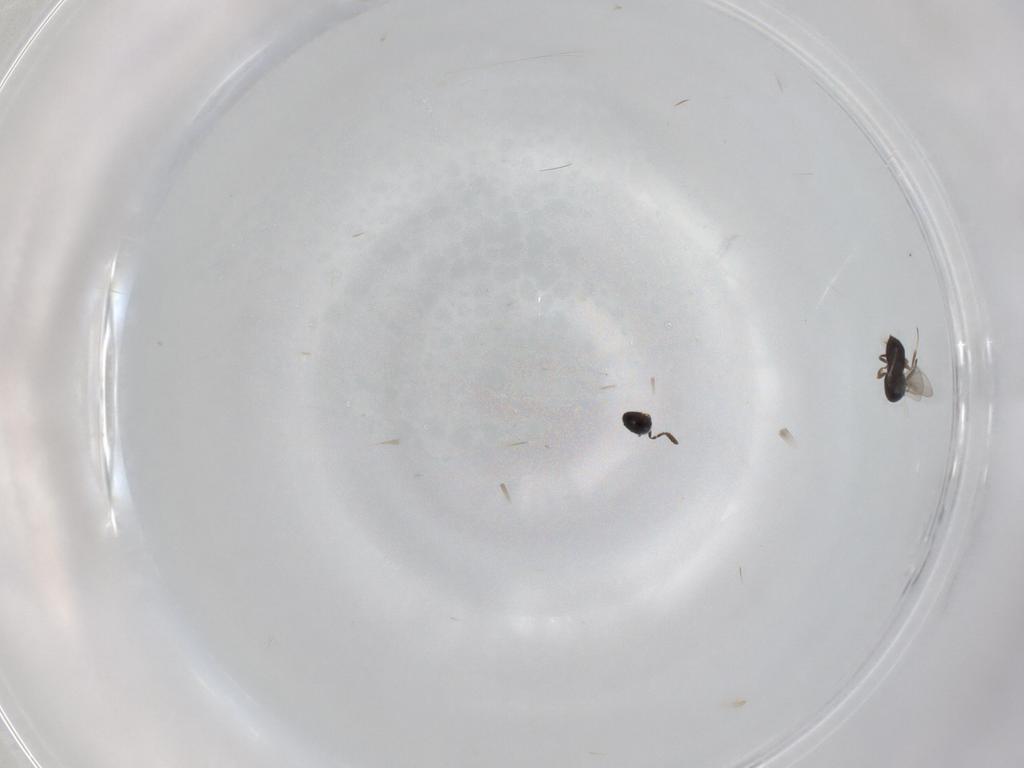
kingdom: Animalia
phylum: Arthropoda
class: Insecta
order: Hymenoptera
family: Scelionidae
